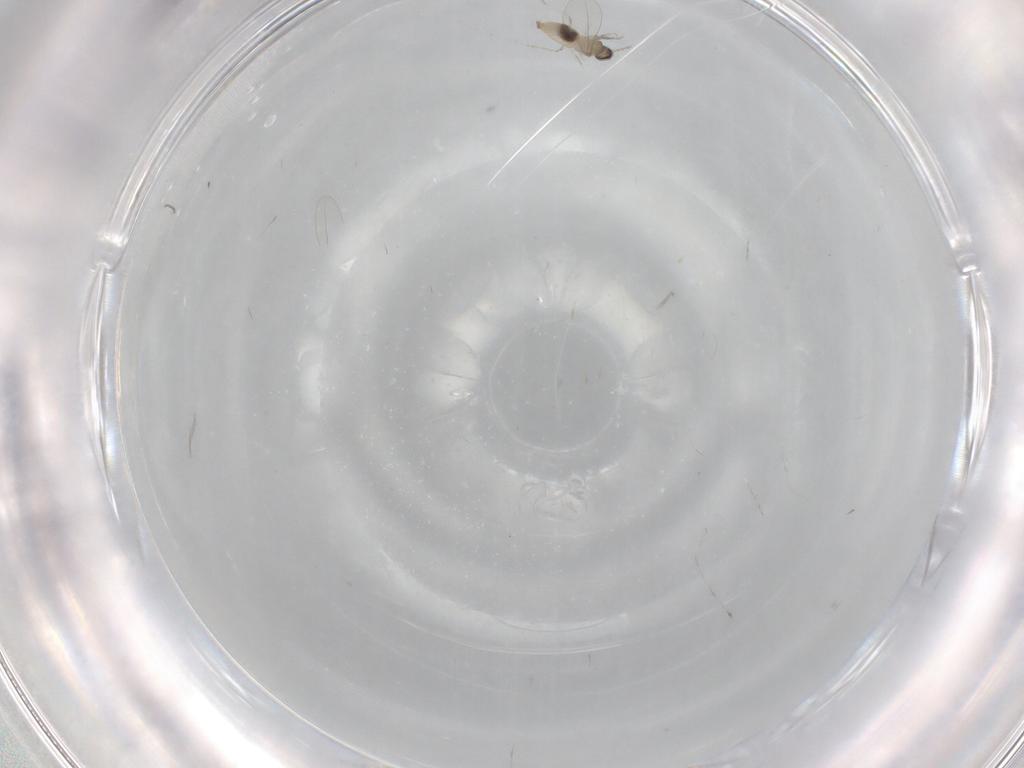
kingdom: Animalia
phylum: Arthropoda
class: Insecta
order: Diptera
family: Cecidomyiidae
